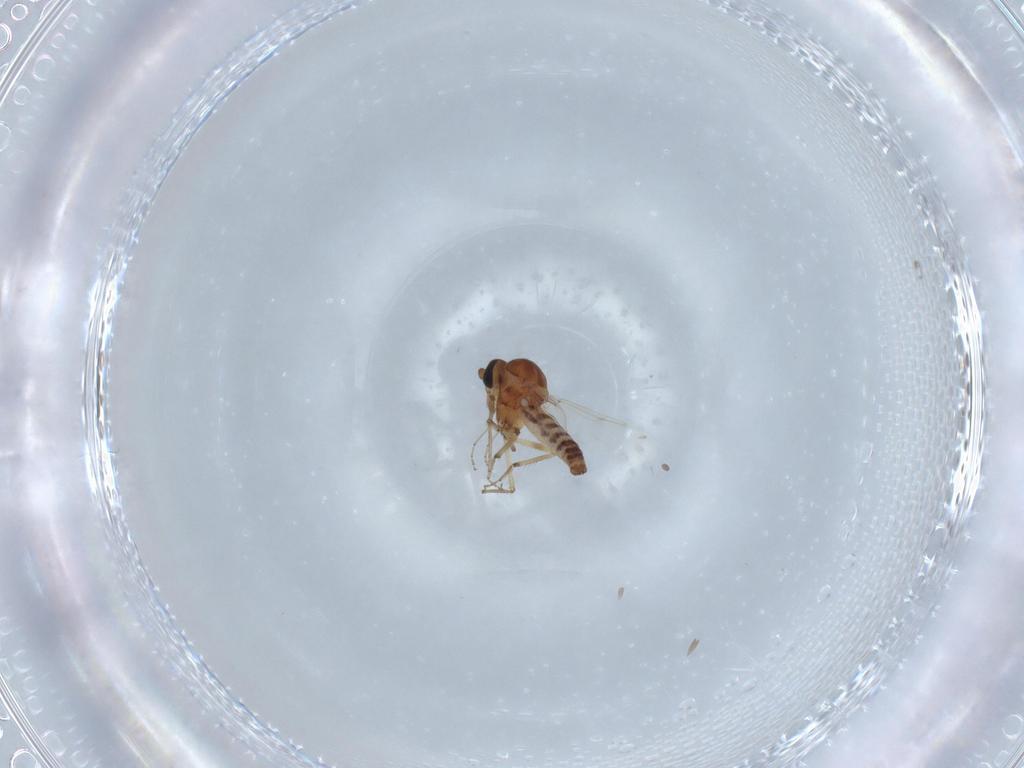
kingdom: Animalia
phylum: Arthropoda
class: Insecta
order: Diptera
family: Ceratopogonidae
